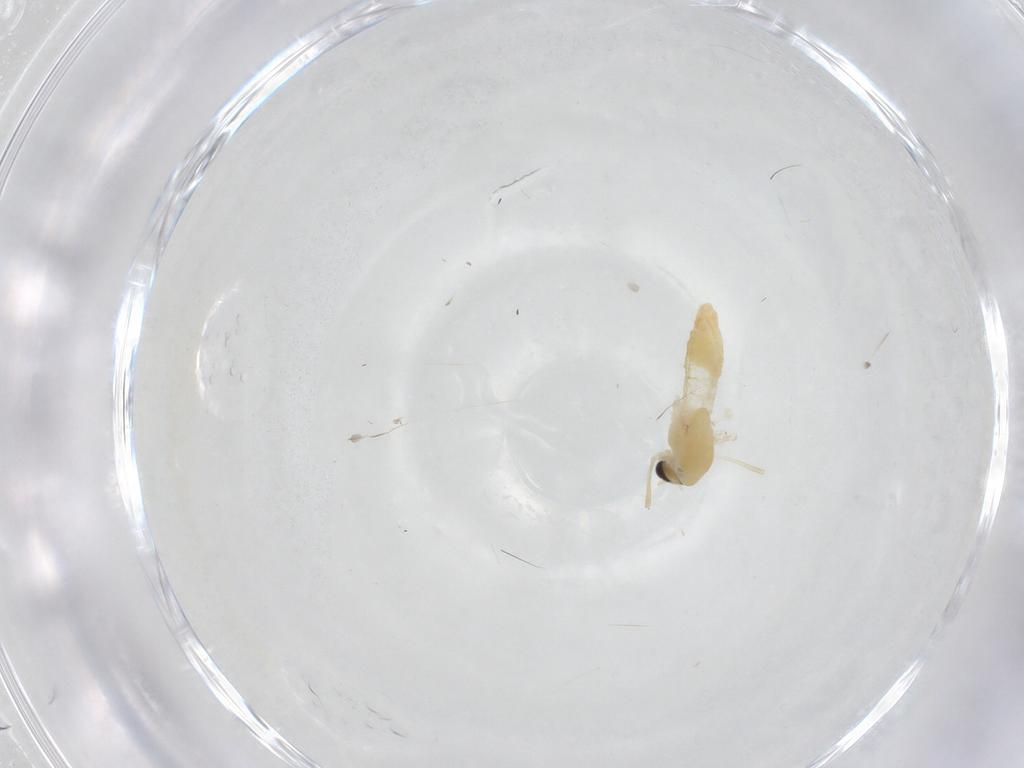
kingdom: Animalia
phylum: Arthropoda
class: Insecta
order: Diptera
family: Chironomidae
